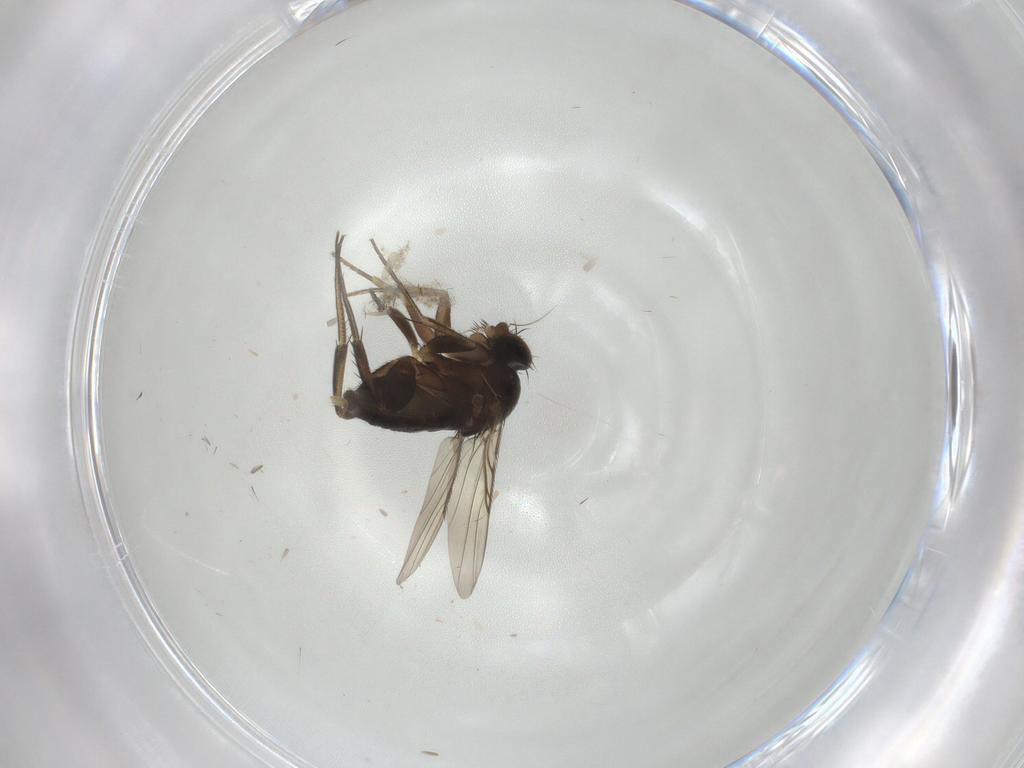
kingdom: Animalia
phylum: Arthropoda
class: Insecta
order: Diptera
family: Phoridae
